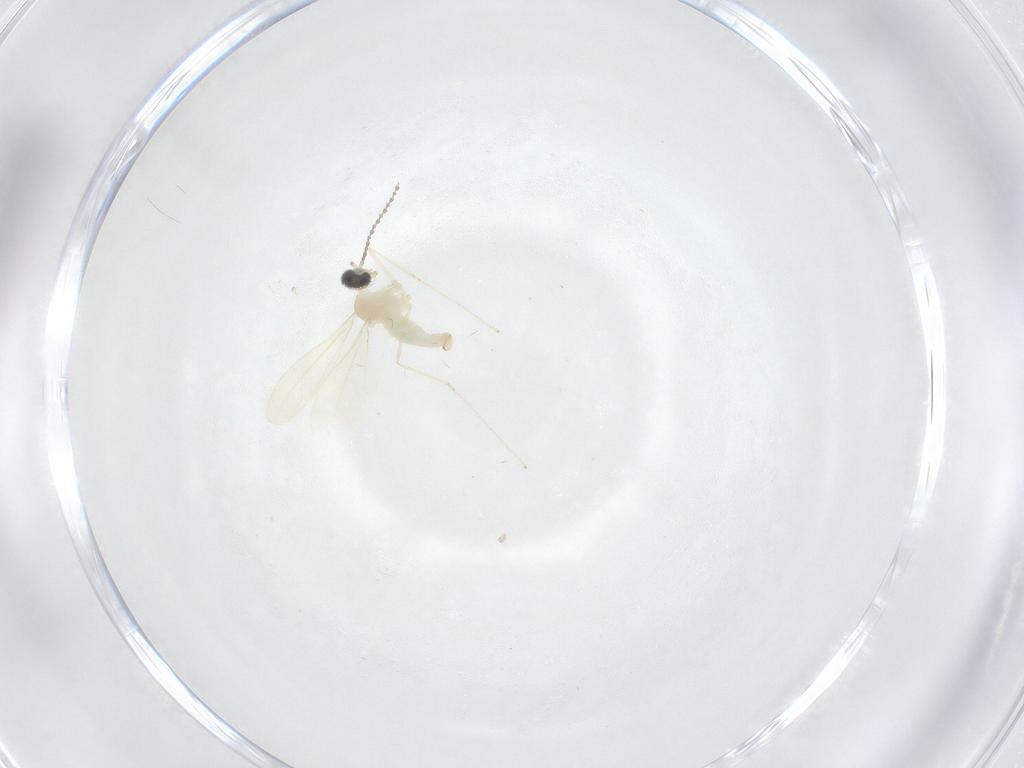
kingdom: Animalia
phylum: Arthropoda
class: Insecta
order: Diptera
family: Cecidomyiidae
